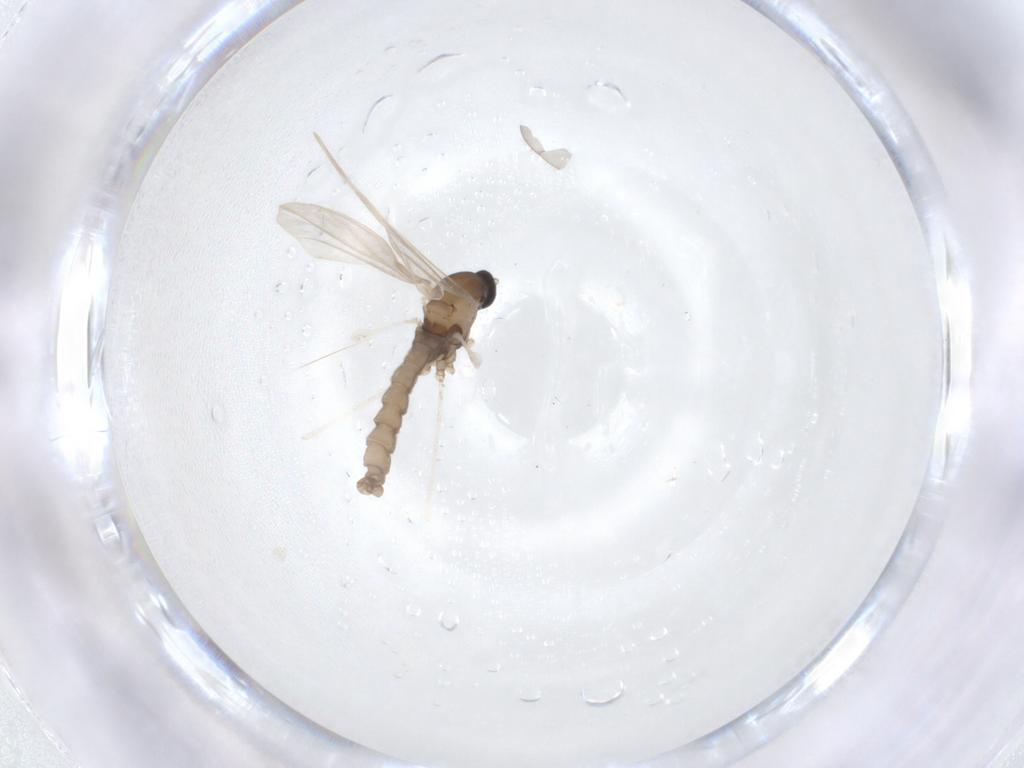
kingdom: Animalia
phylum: Arthropoda
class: Insecta
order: Diptera
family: Cecidomyiidae
